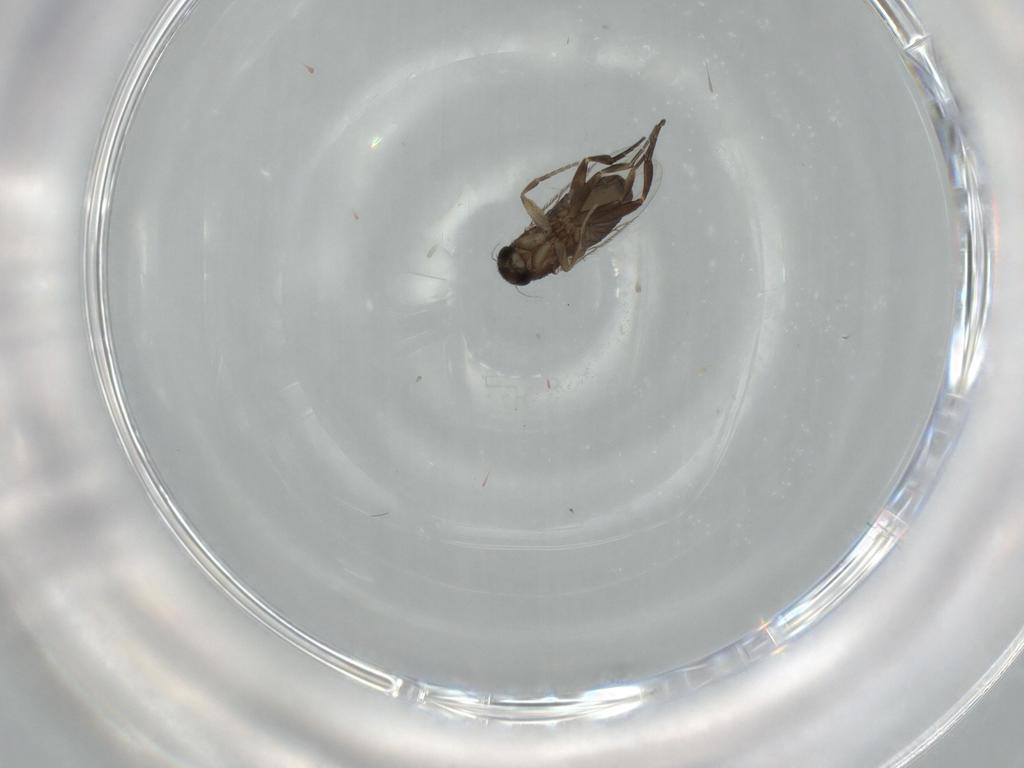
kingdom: Animalia
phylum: Arthropoda
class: Insecta
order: Diptera
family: Phoridae
